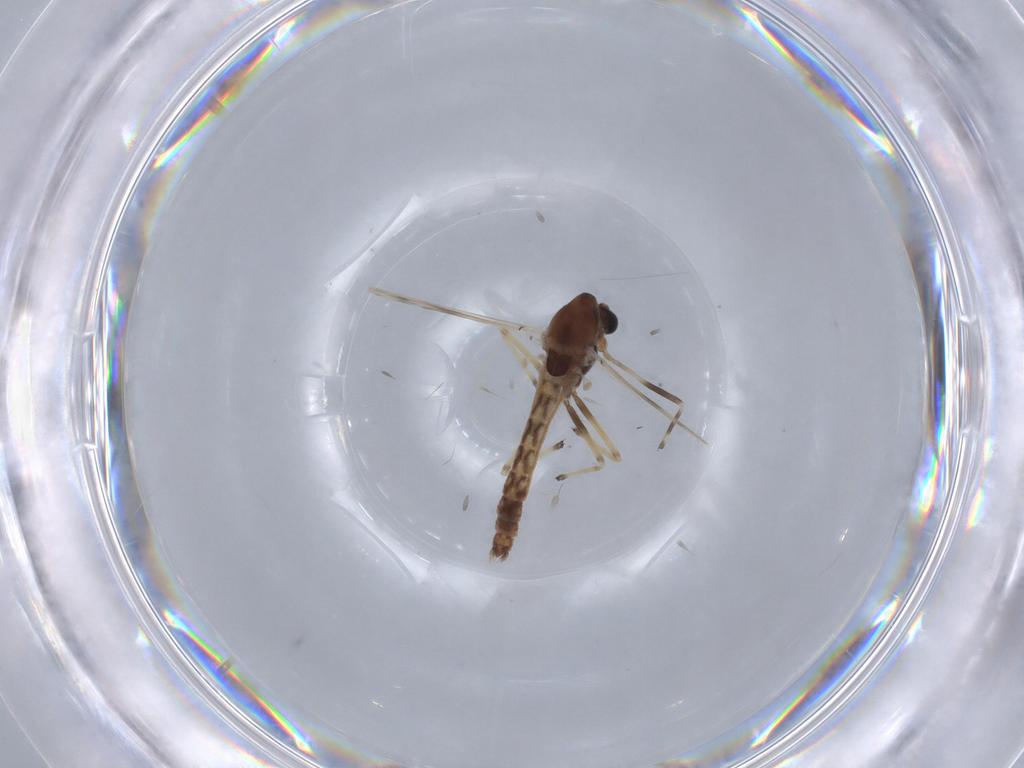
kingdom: Animalia
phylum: Arthropoda
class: Insecta
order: Diptera
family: Chironomidae
